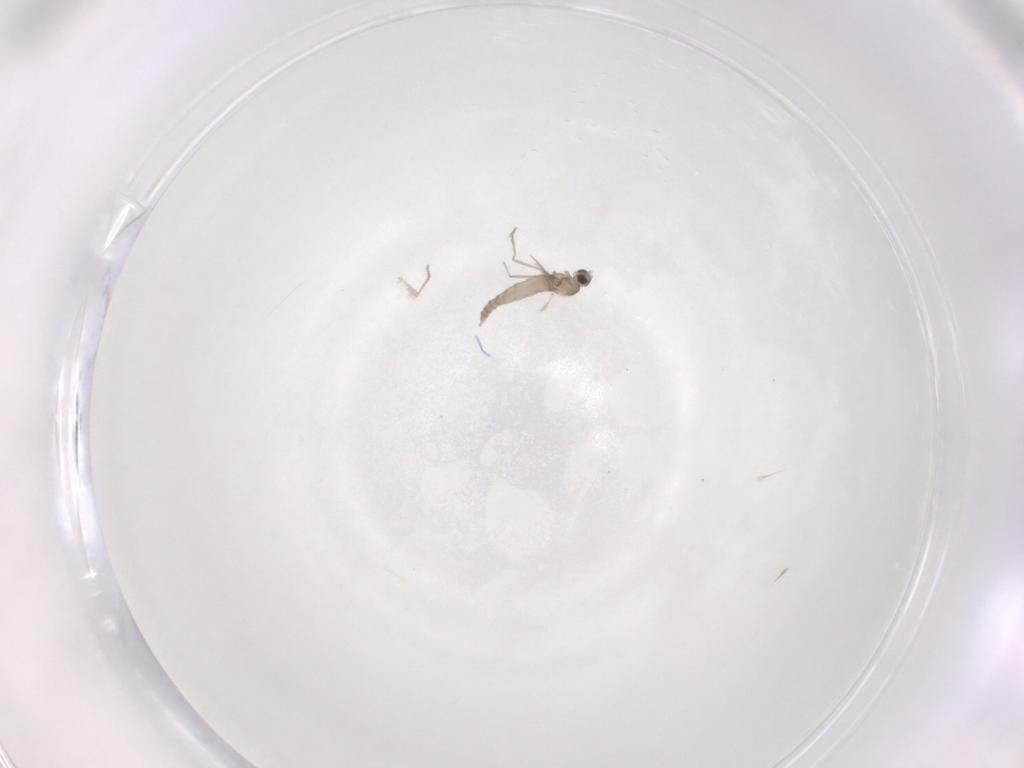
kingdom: Animalia
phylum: Arthropoda
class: Insecta
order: Diptera
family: Cecidomyiidae
